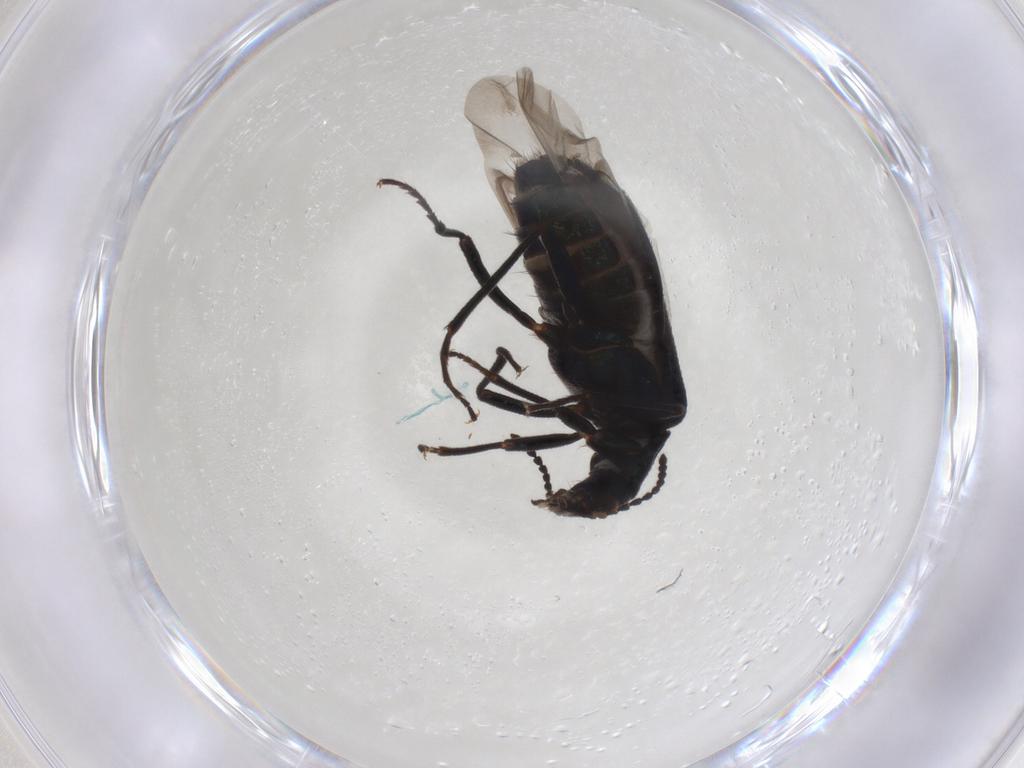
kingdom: Animalia
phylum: Arthropoda
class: Insecta
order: Coleoptera
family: Melyridae
